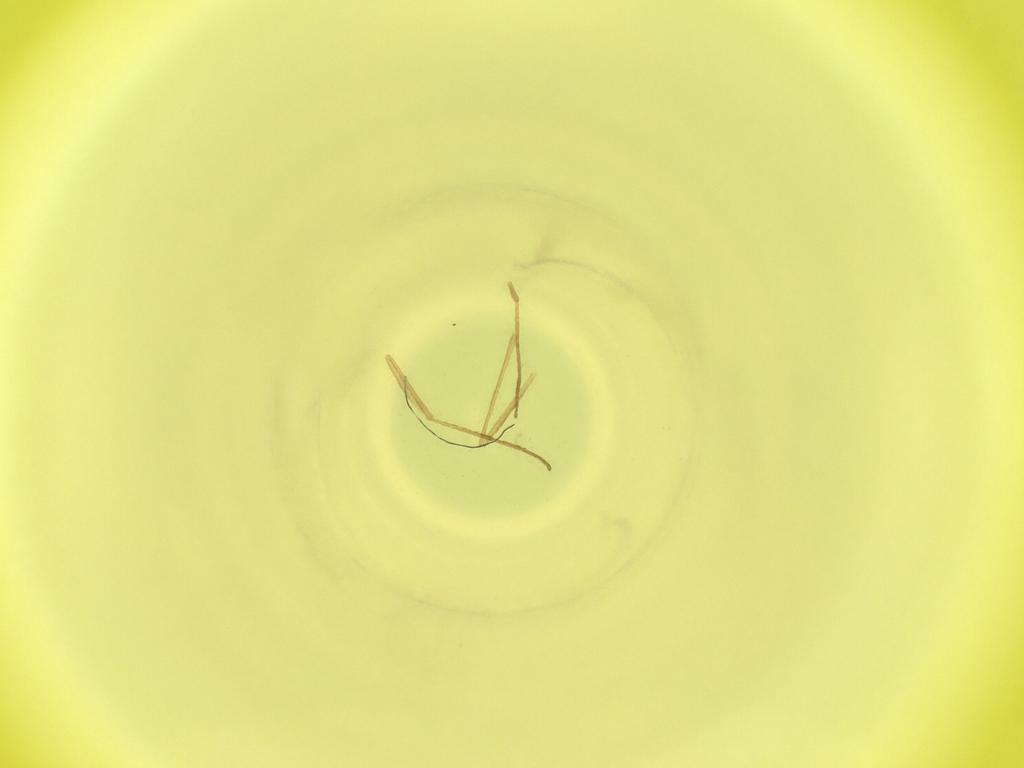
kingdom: Animalia
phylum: Arthropoda
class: Insecta
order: Diptera
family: Cecidomyiidae
